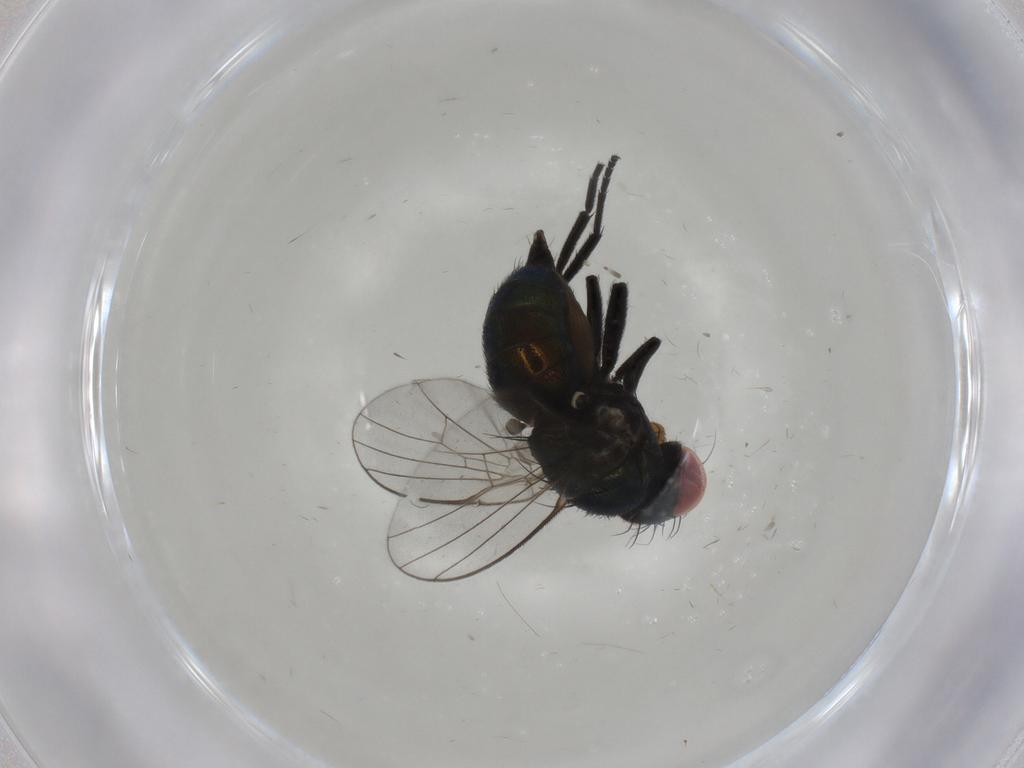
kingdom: Animalia
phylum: Arthropoda
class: Insecta
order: Diptera
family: Agromyzidae
